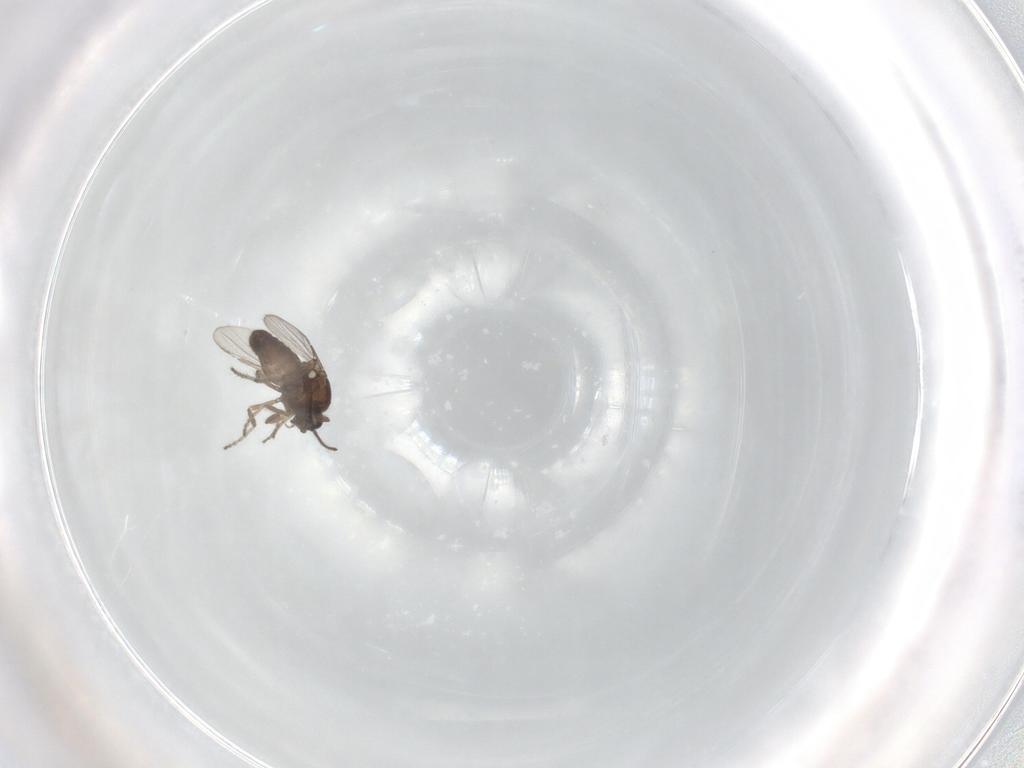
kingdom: Animalia
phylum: Arthropoda
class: Insecta
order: Diptera
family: Ceratopogonidae
